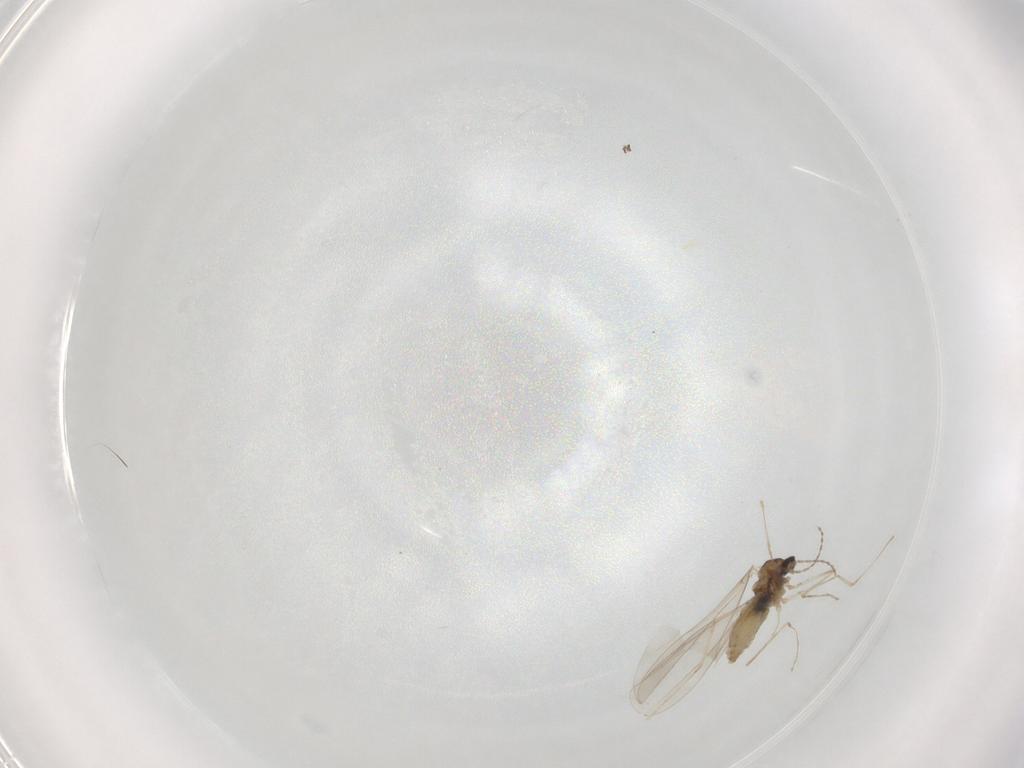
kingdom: Animalia
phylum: Arthropoda
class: Insecta
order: Diptera
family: Cecidomyiidae
